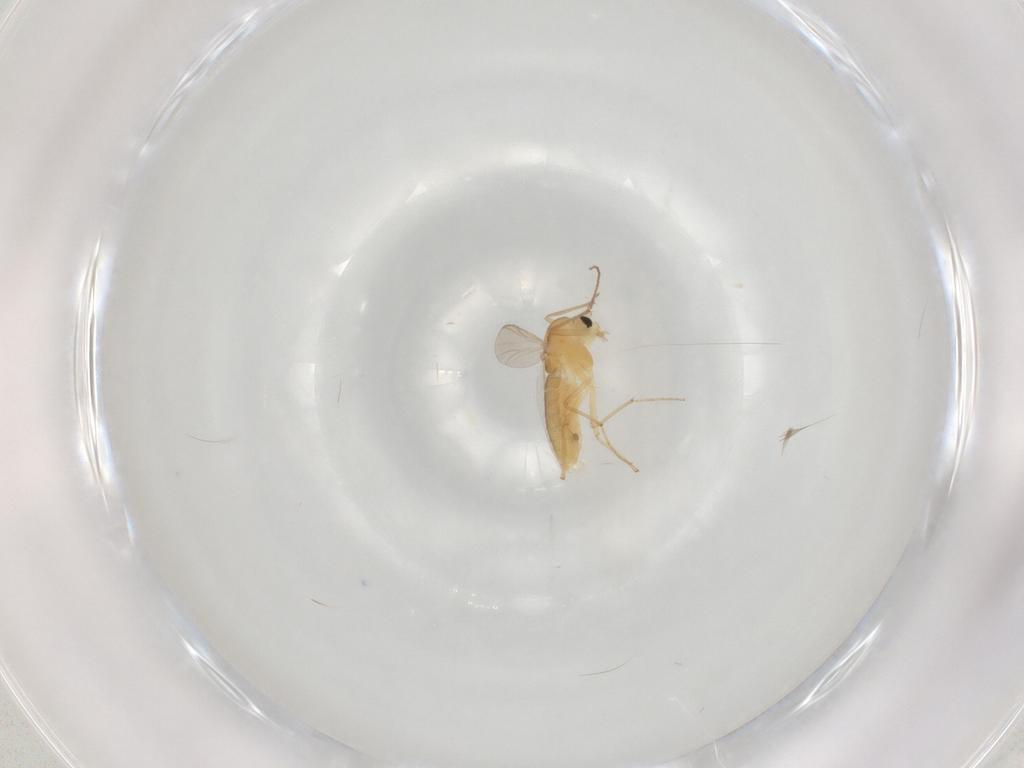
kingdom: Animalia
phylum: Arthropoda
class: Insecta
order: Diptera
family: Chironomidae
